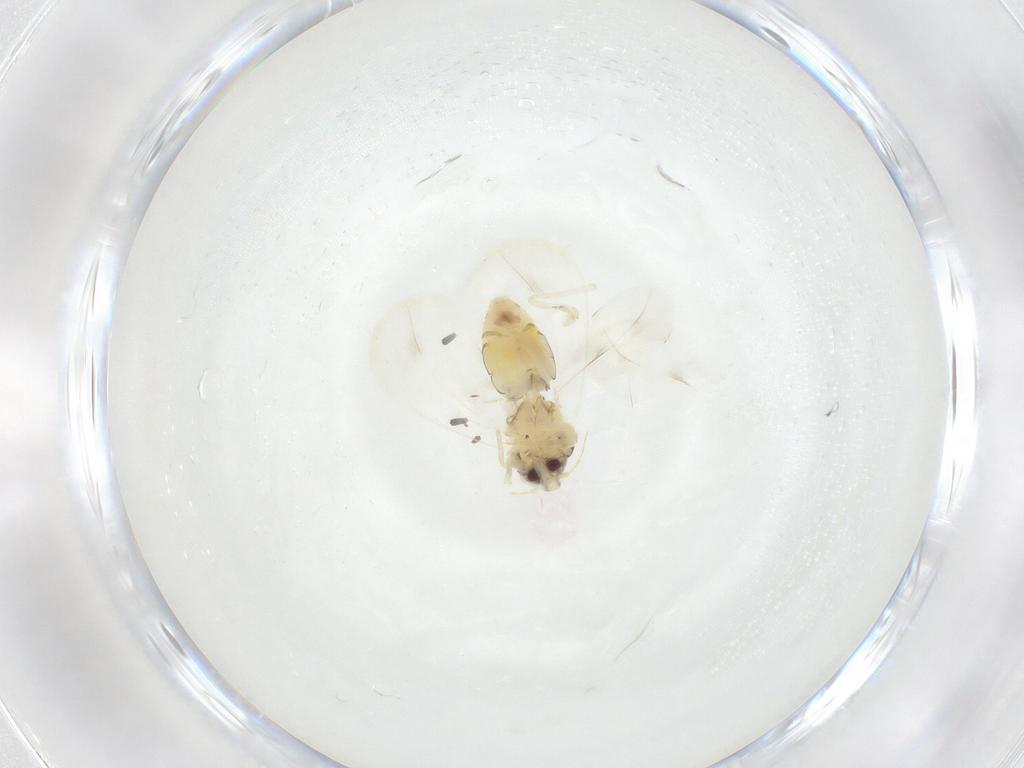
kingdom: Animalia
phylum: Arthropoda
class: Insecta
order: Hemiptera
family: Aleyrodidae
